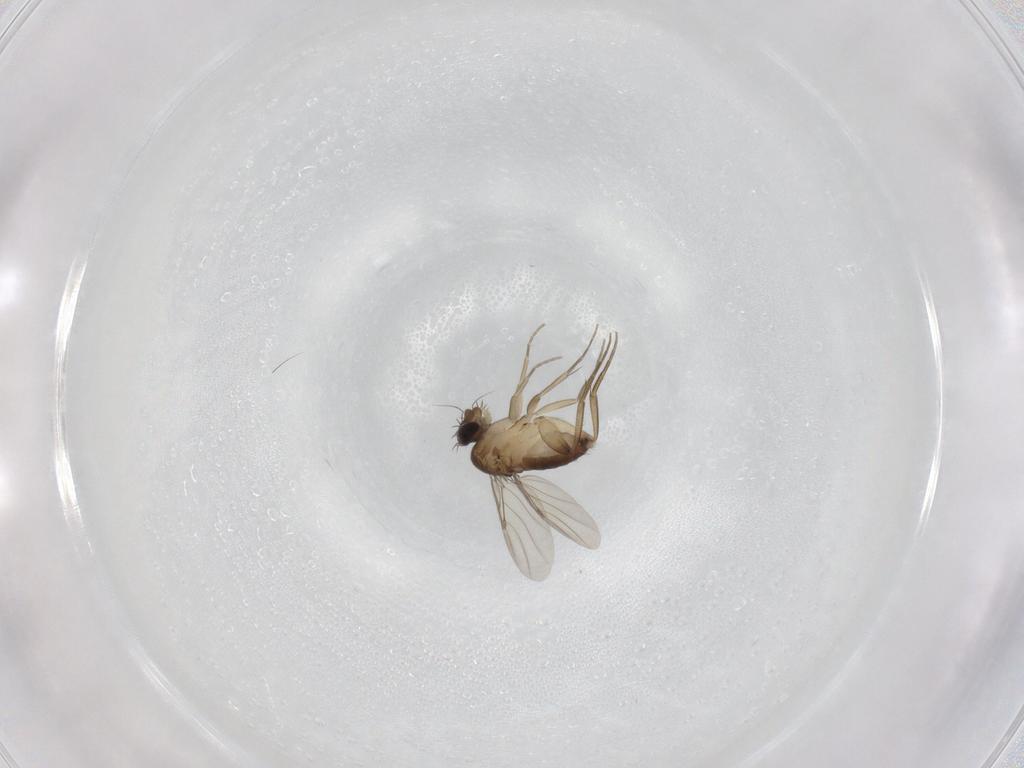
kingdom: Animalia
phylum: Arthropoda
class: Insecta
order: Diptera
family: Phoridae
